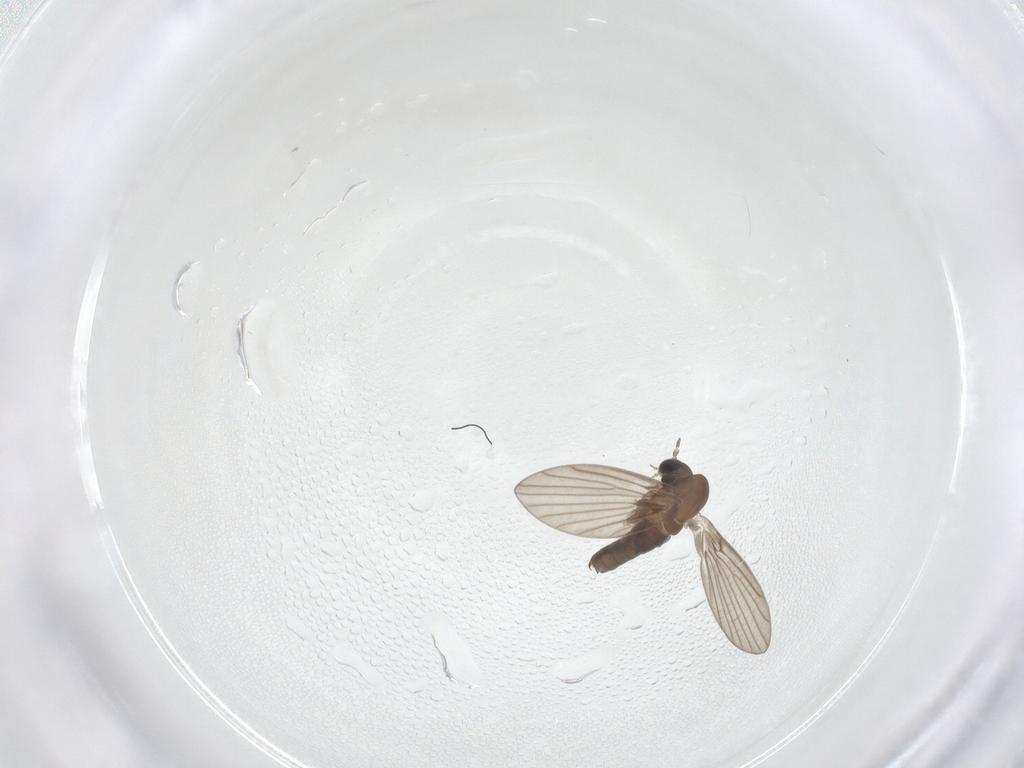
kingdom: Animalia
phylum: Arthropoda
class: Insecta
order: Diptera
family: Psychodidae
